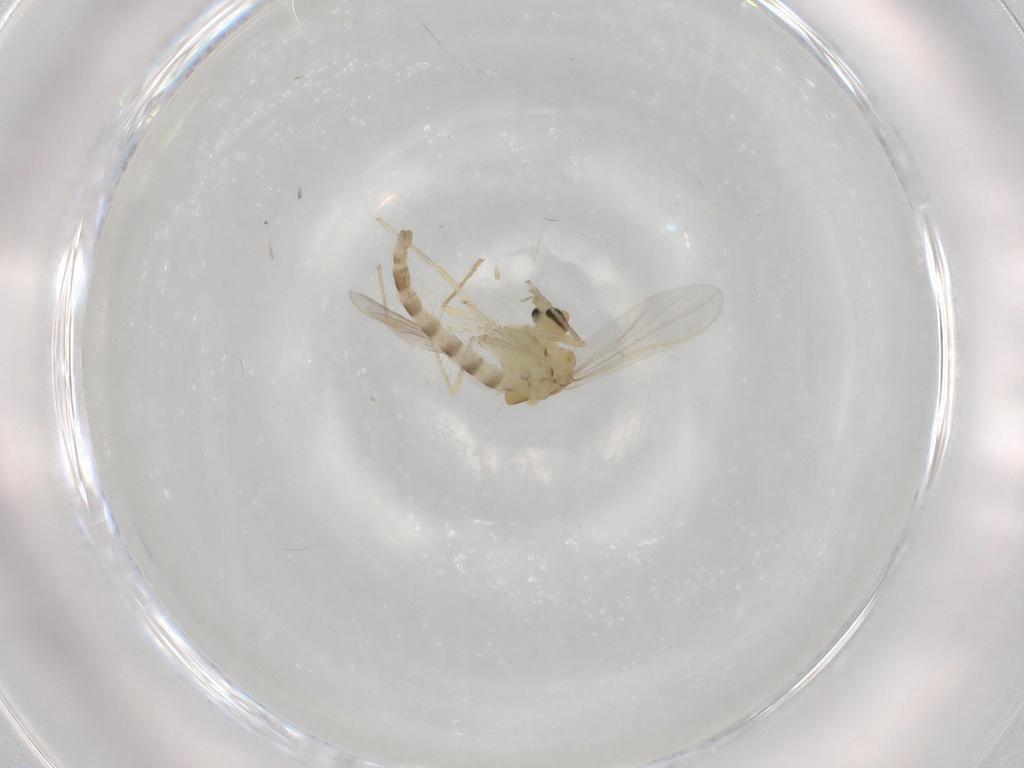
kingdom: Animalia
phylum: Arthropoda
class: Insecta
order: Diptera
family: Chironomidae
